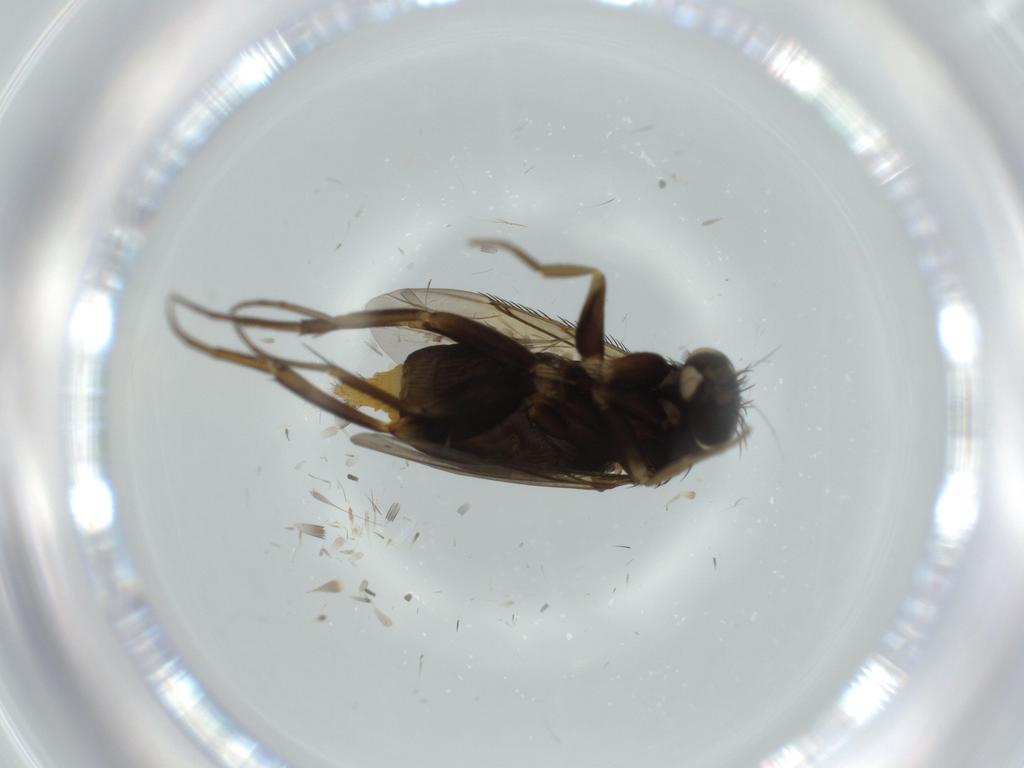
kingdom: Animalia
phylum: Arthropoda
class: Insecta
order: Diptera
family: Phoridae
